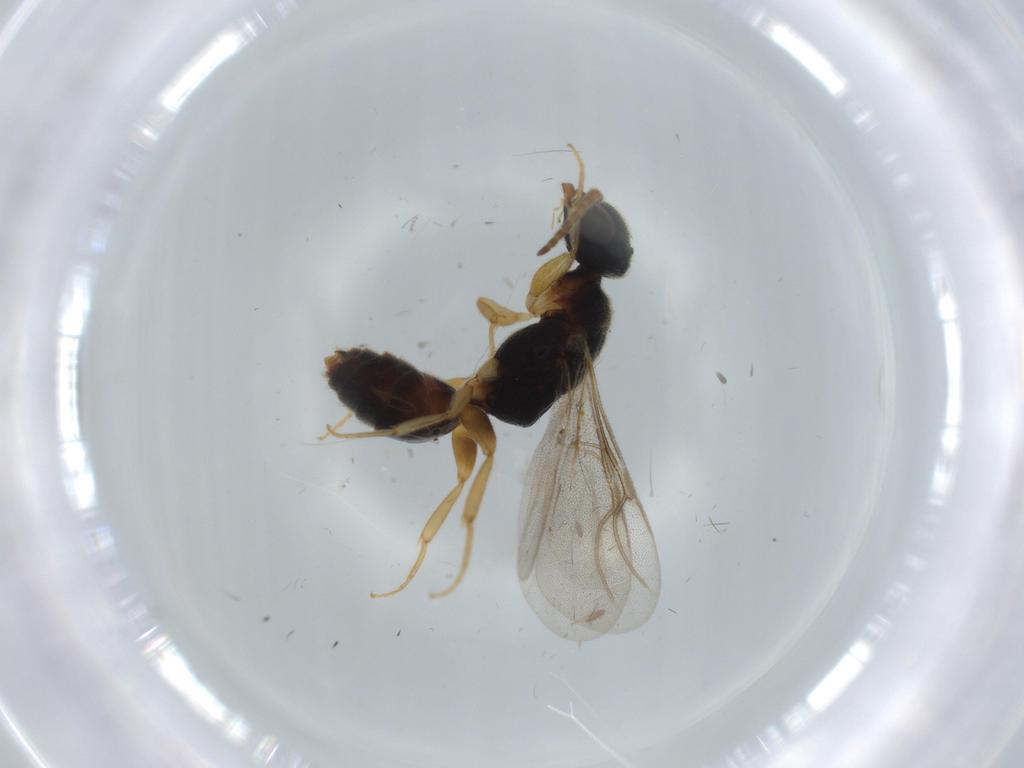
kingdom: Animalia
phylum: Arthropoda
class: Insecta
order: Hymenoptera
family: Bethylidae
